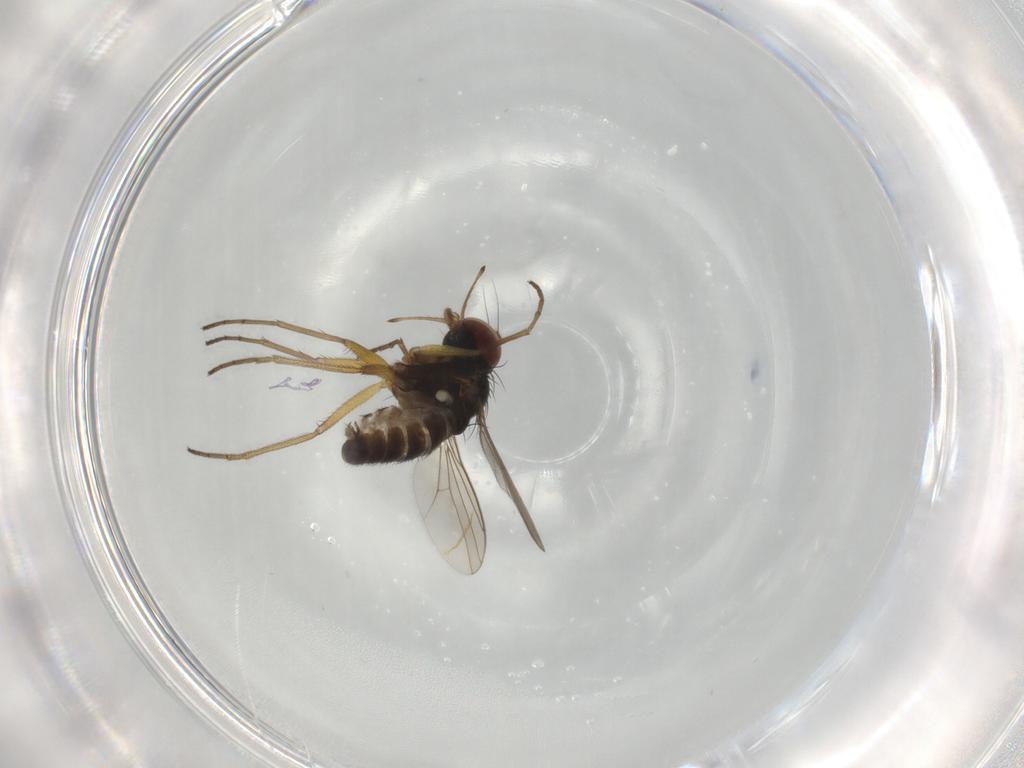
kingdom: Animalia
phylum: Arthropoda
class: Insecta
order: Diptera
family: Dolichopodidae
